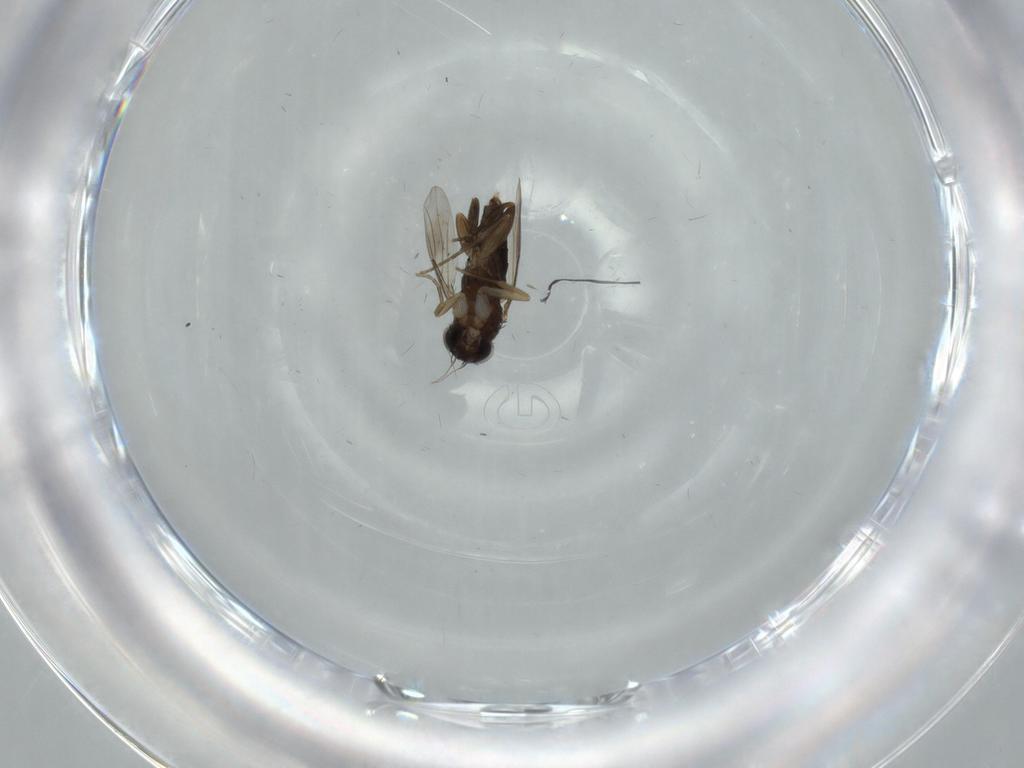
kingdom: Animalia
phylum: Arthropoda
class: Insecta
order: Diptera
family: Phoridae
